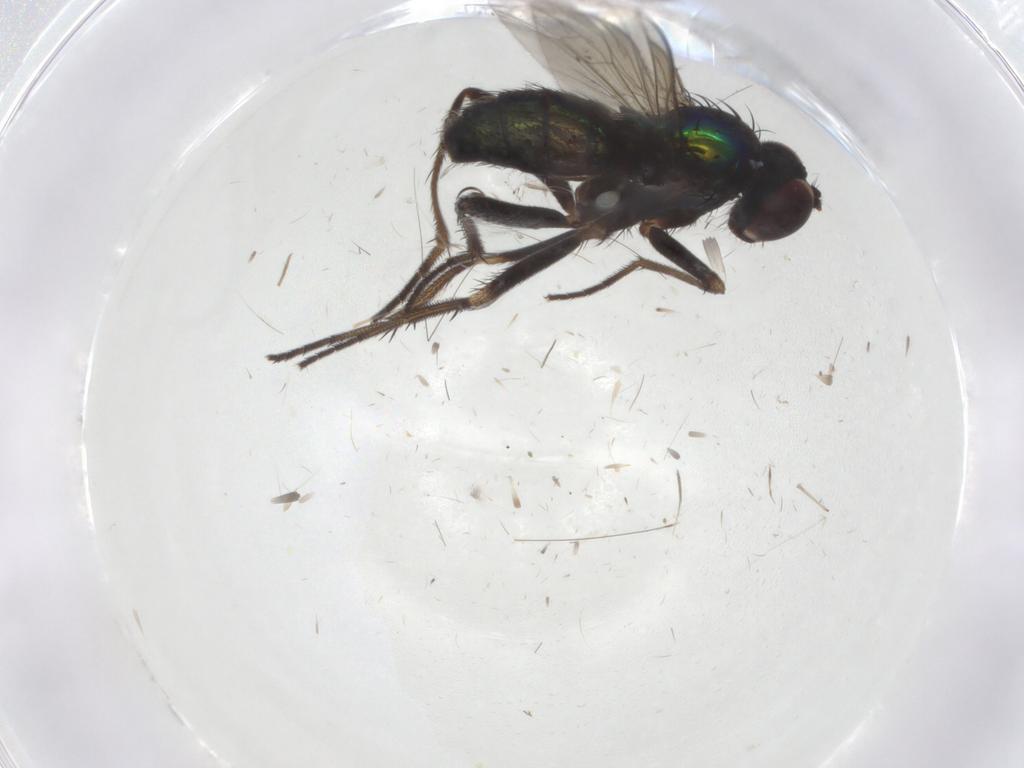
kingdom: Animalia
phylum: Arthropoda
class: Insecta
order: Diptera
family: Dolichopodidae
